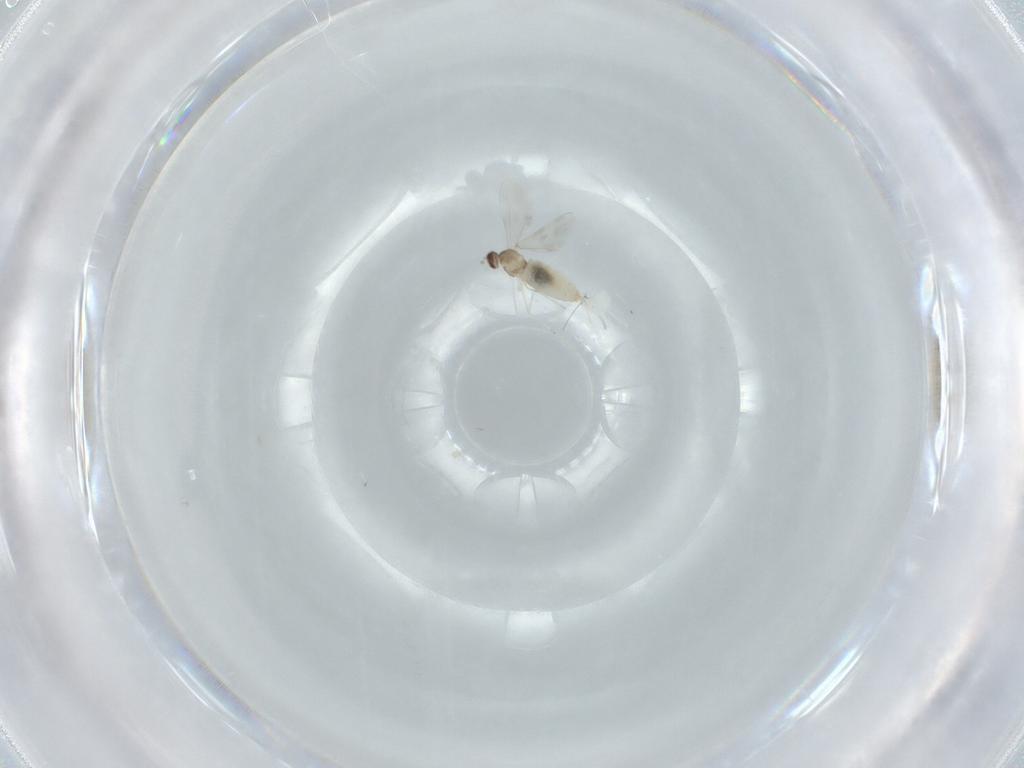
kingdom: Animalia
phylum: Arthropoda
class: Insecta
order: Diptera
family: Cecidomyiidae
